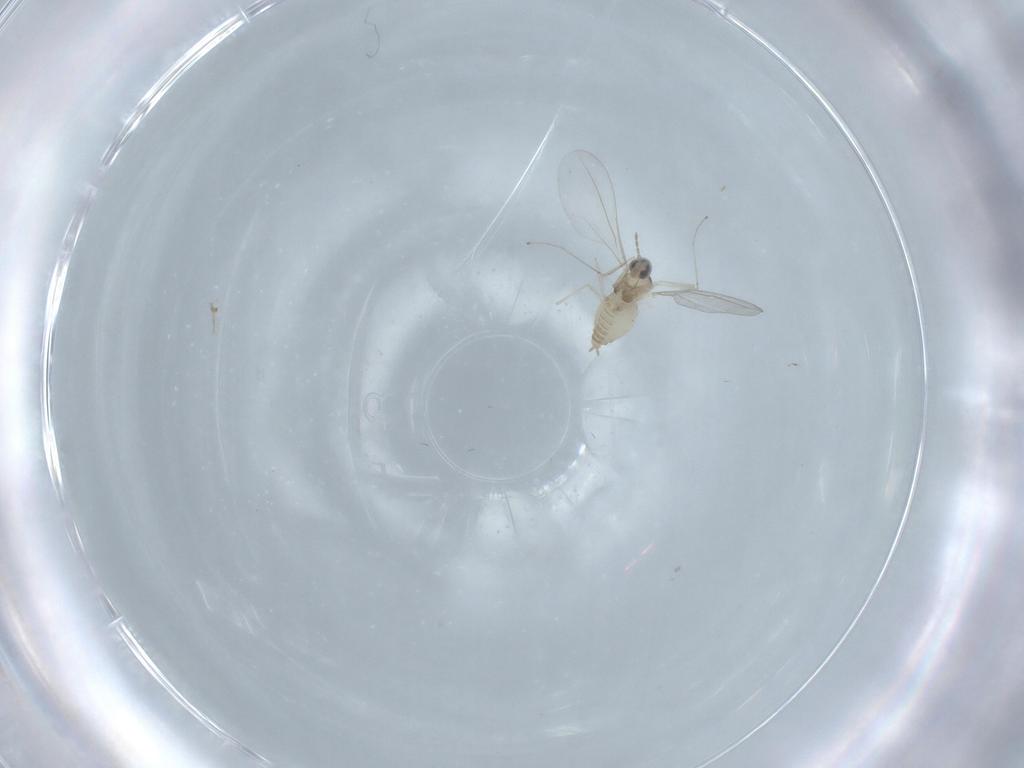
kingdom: Animalia
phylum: Arthropoda
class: Insecta
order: Diptera
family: Cecidomyiidae
